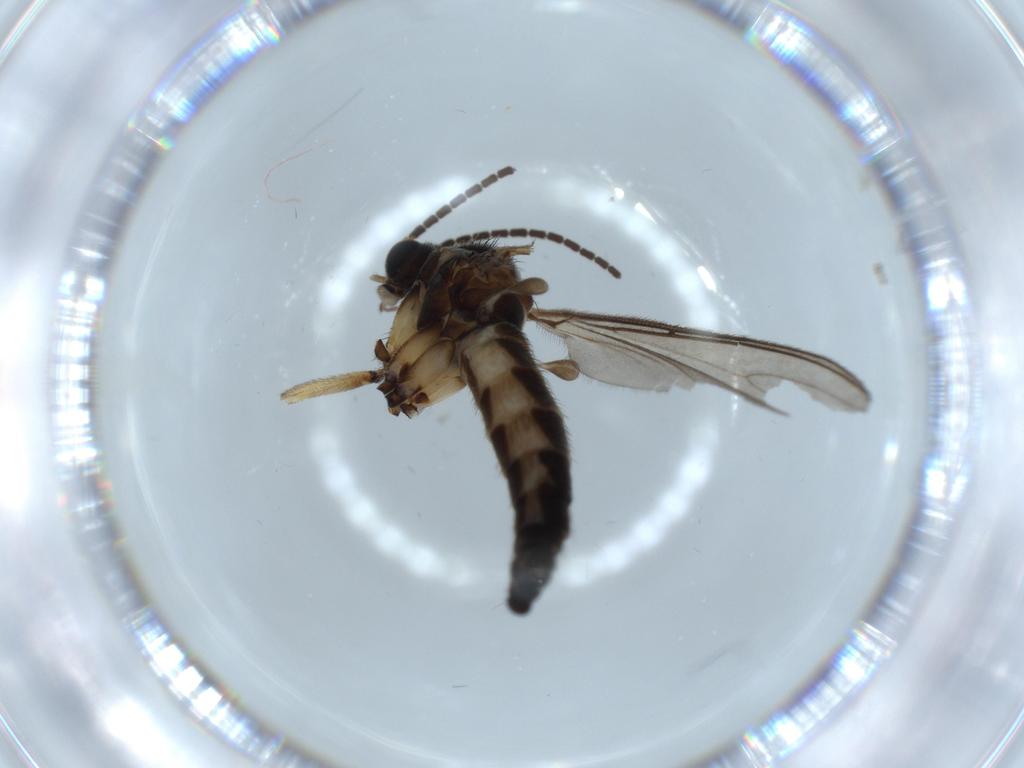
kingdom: Animalia
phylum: Arthropoda
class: Insecta
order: Diptera
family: Sciaridae
